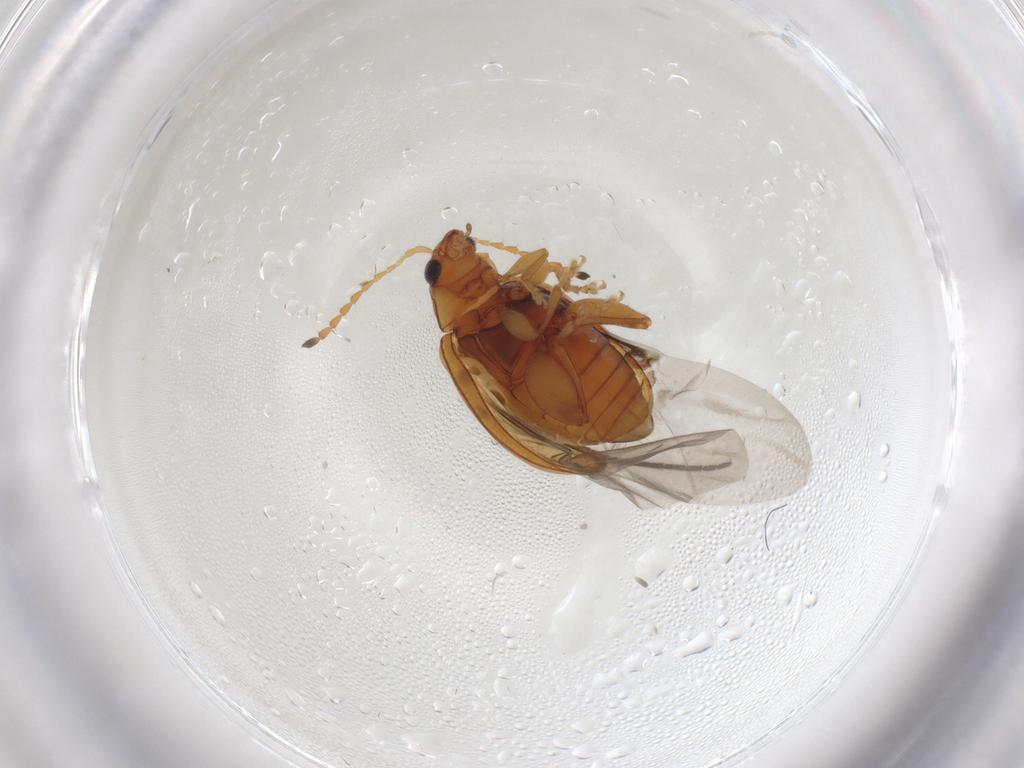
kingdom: Animalia
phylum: Arthropoda
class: Insecta
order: Coleoptera
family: Chrysomelidae
